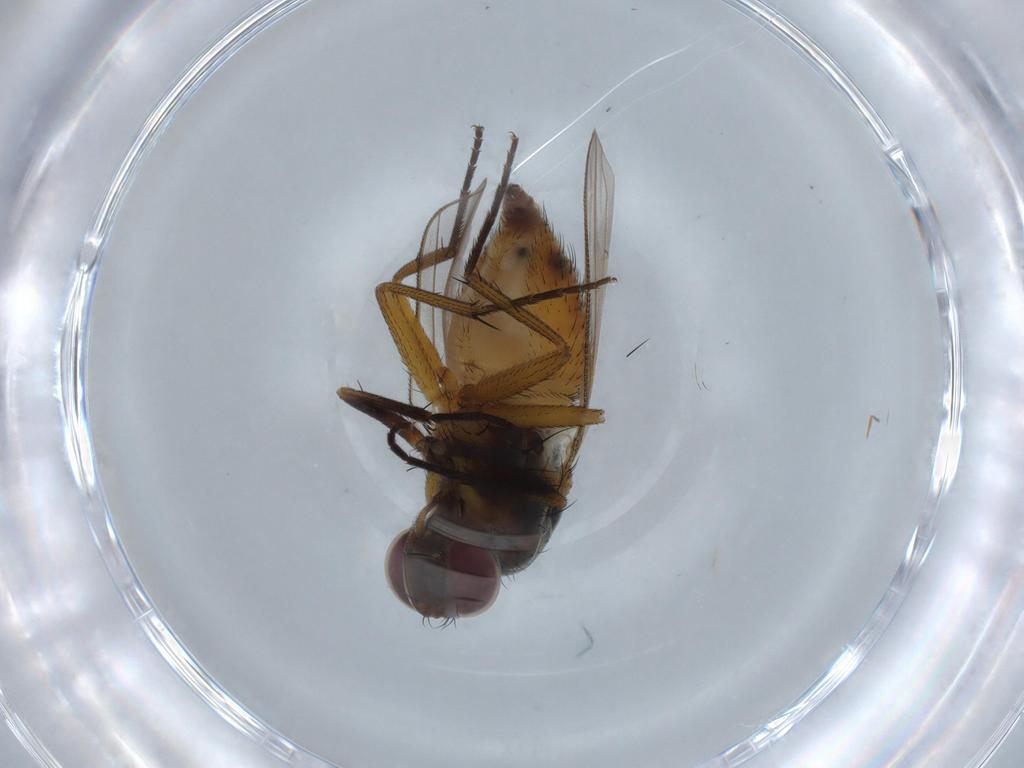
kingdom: Animalia
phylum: Arthropoda
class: Insecta
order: Diptera
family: Muscidae
